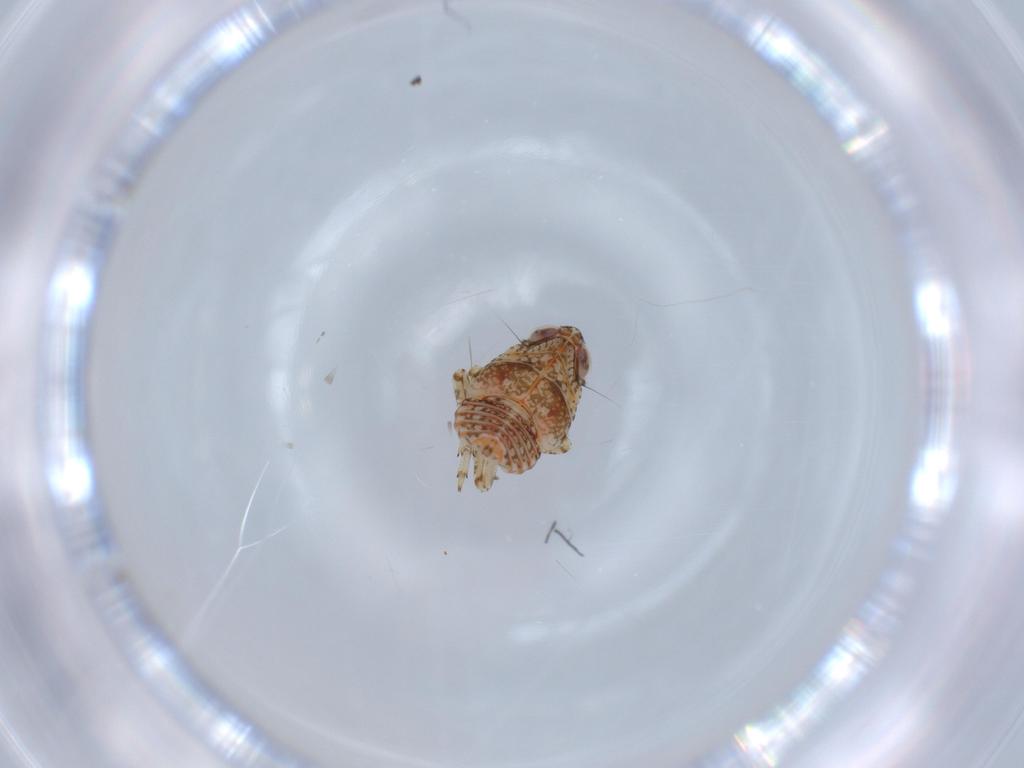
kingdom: Animalia
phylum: Arthropoda
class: Insecta
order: Hemiptera
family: Issidae
